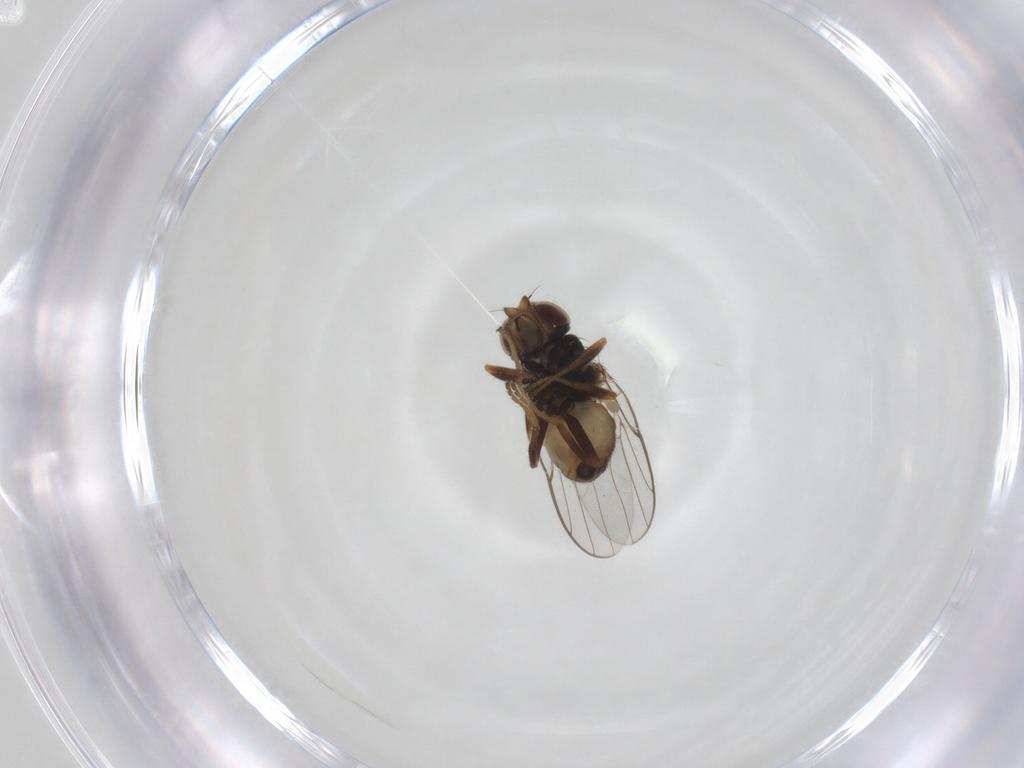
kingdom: Animalia
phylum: Arthropoda
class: Insecta
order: Diptera
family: Chloropidae
